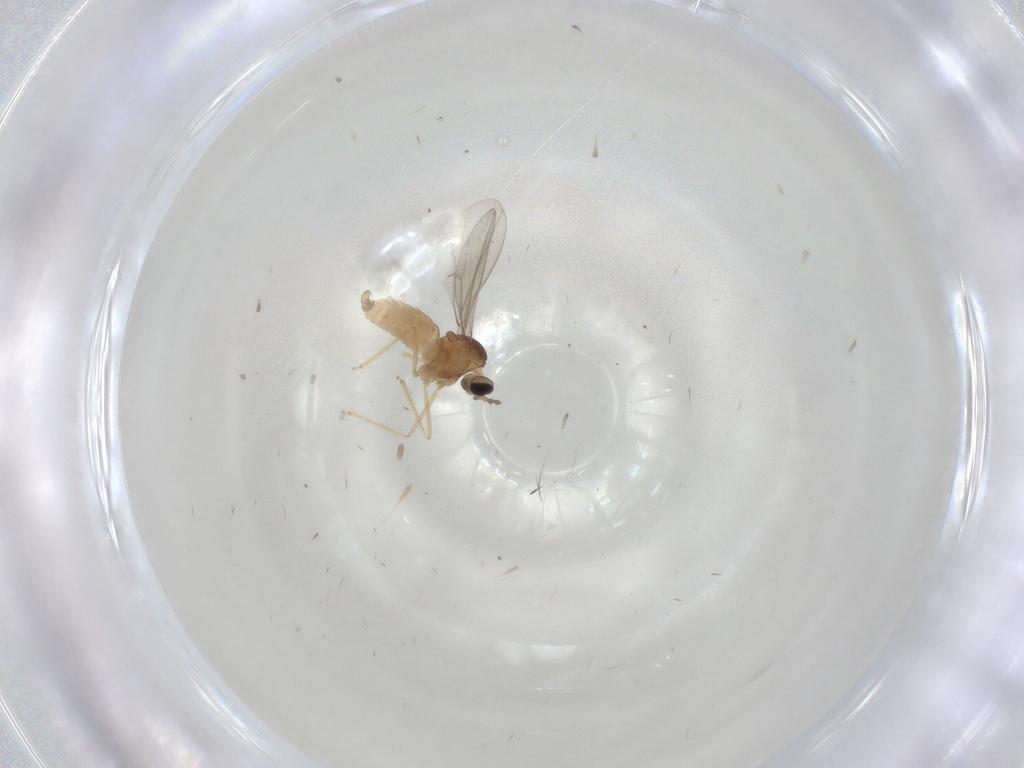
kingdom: Animalia
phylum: Arthropoda
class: Insecta
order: Diptera
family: Cecidomyiidae
